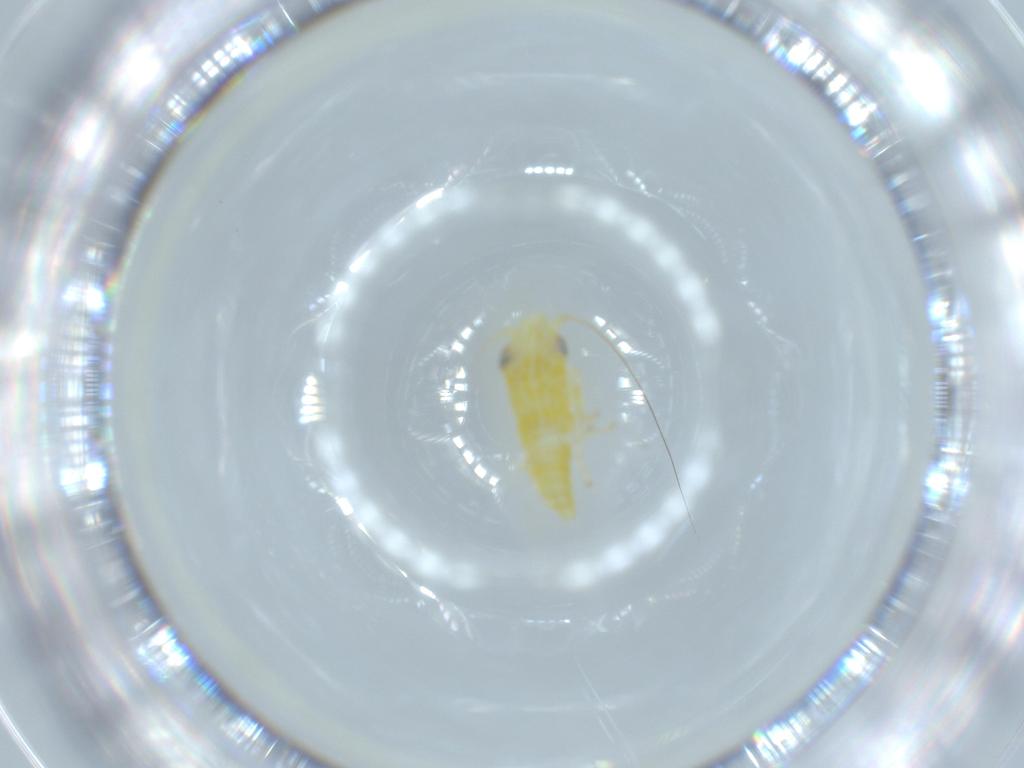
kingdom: Animalia
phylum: Arthropoda
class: Insecta
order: Hemiptera
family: Cicadellidae
